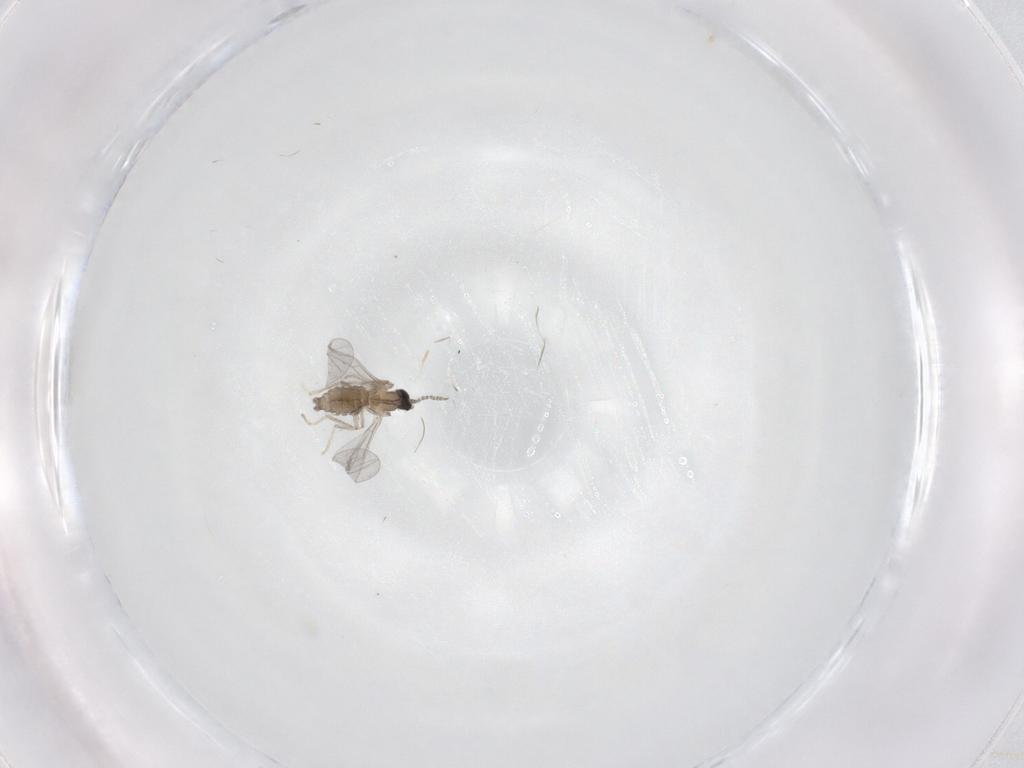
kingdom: Animalia
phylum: Arthropoda
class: Insecta
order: Diptera
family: Cecidomyiidae
